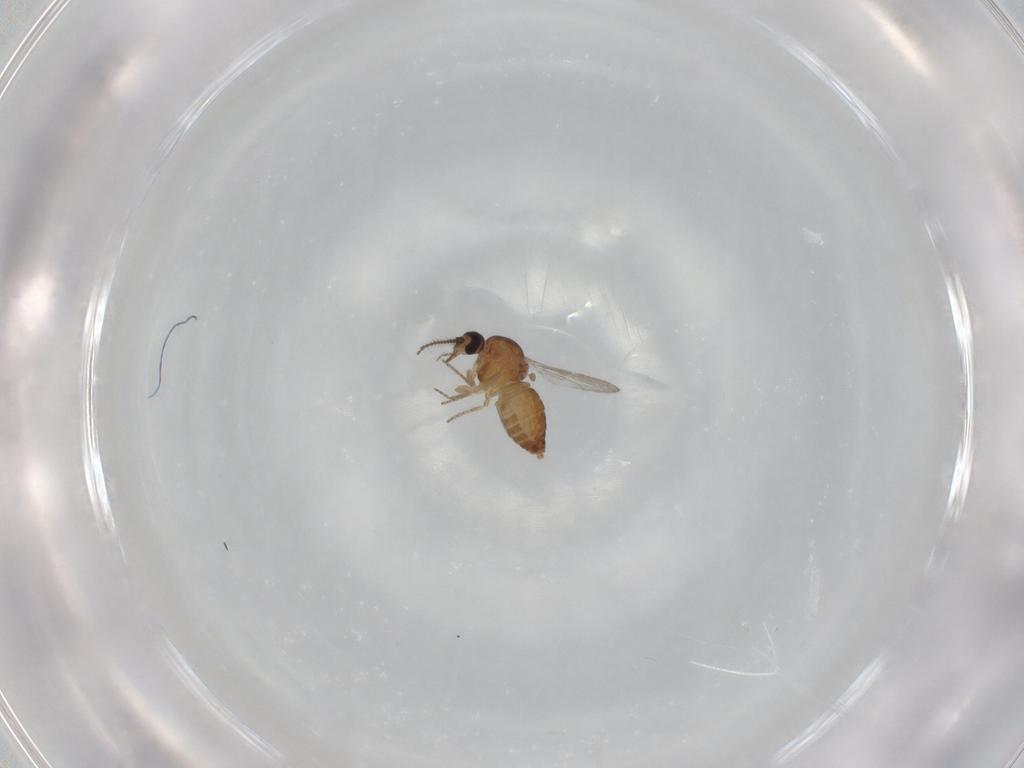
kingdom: Animalia
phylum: Arthropoda
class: Insecta
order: Diptera
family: Ceratopogonidae
